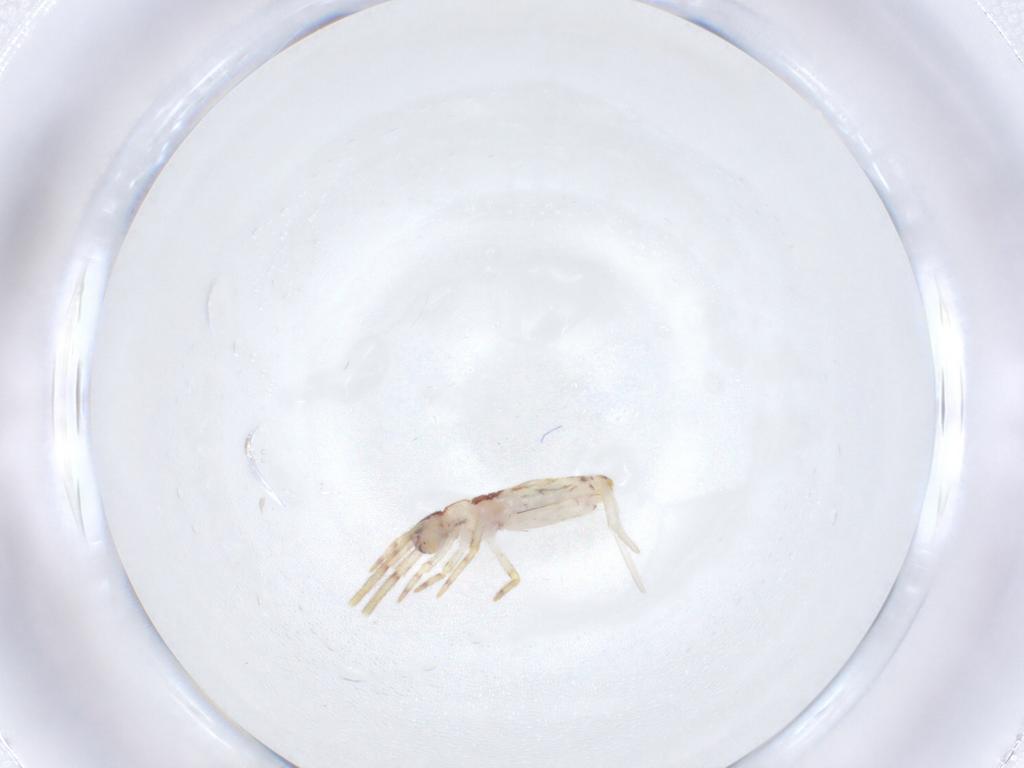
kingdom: Animalia
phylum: Arthropoda
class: Collembola
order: Entomobryomorpha
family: Entomobryidae
